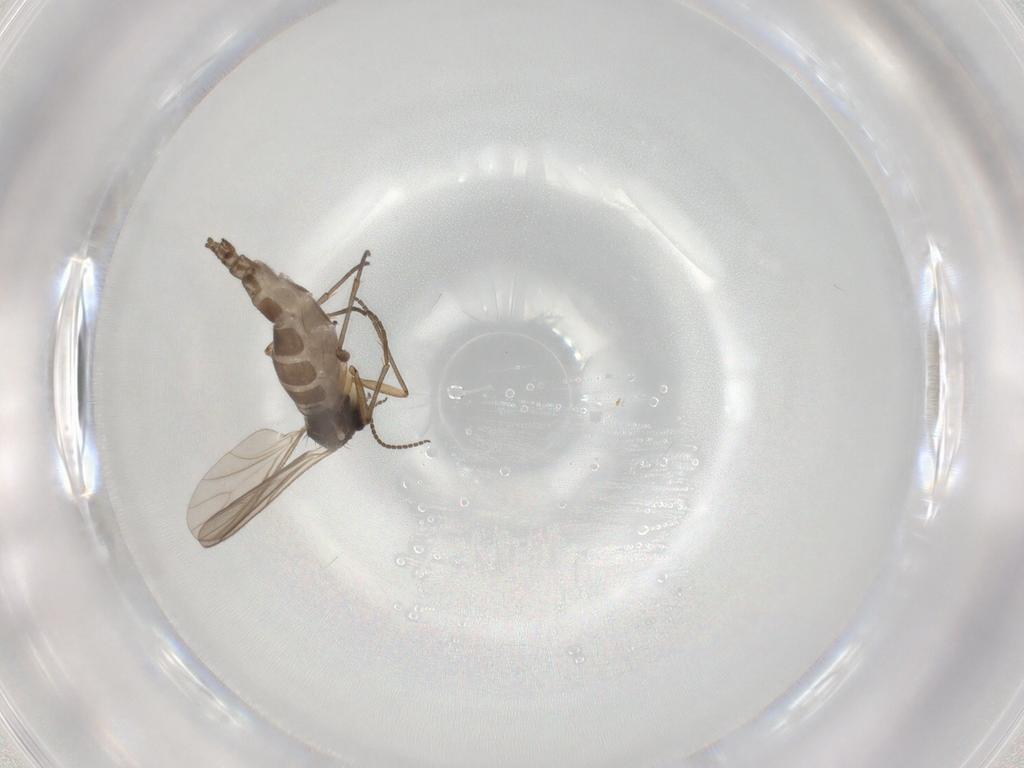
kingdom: Animalia
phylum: Arthropoda
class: Insecta
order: Diptera
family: Sciaridae
